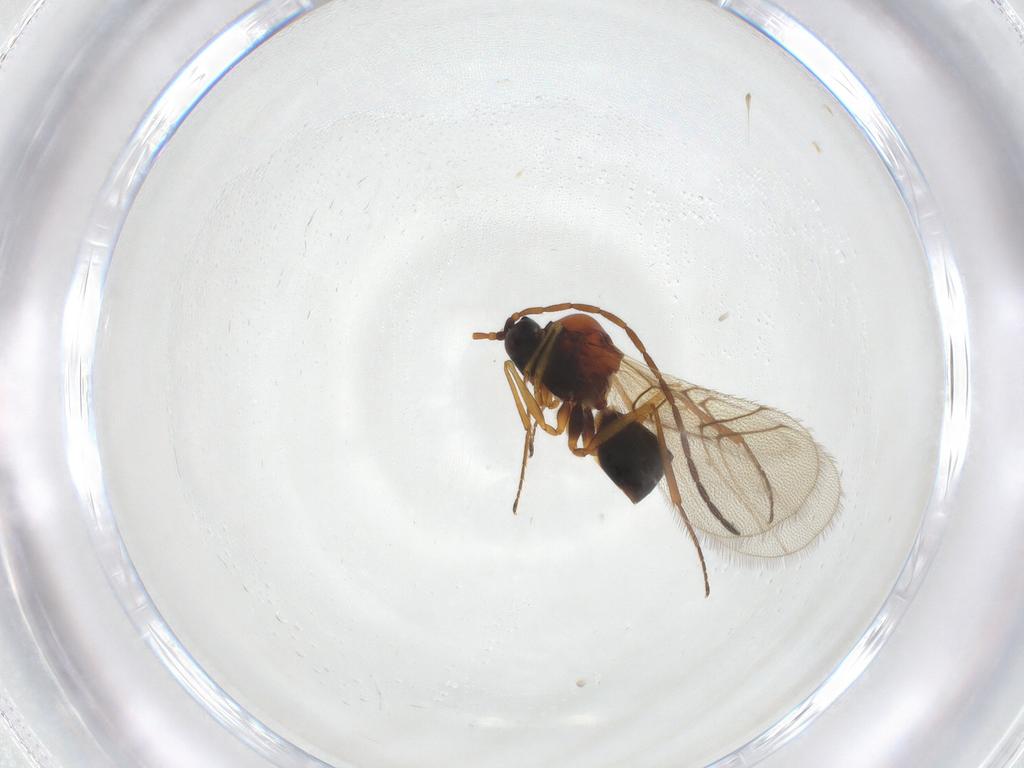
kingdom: Animalia
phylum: Arthropoda
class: Insecta
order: Hymenoptera
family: Figitidae
